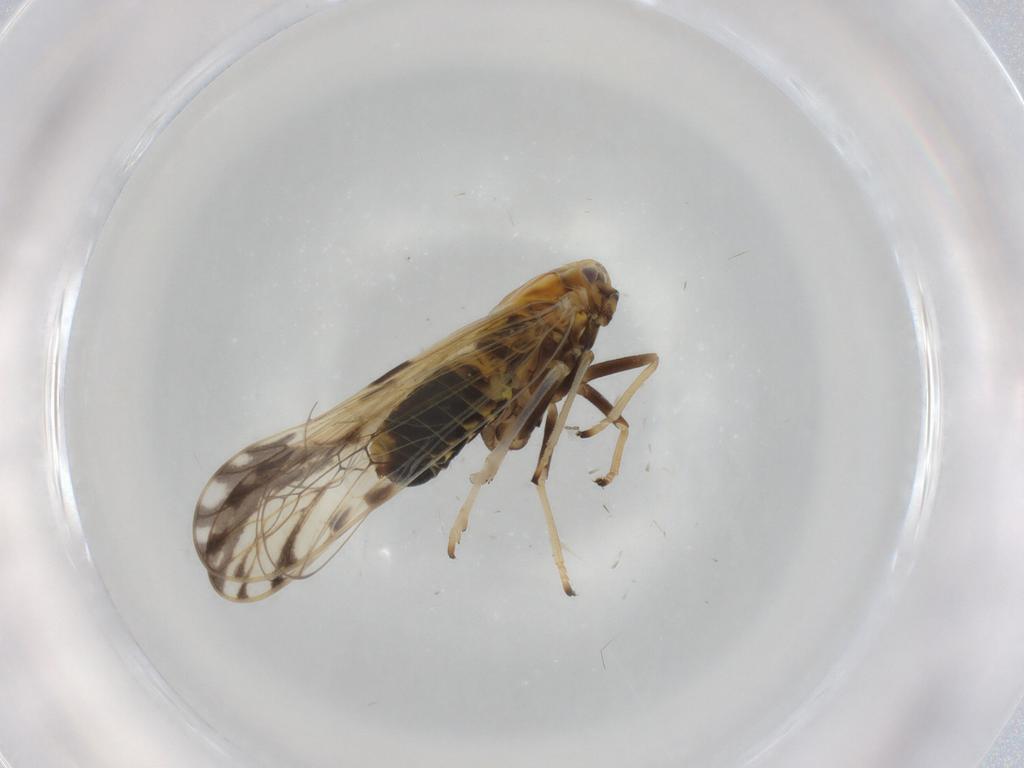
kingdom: Animalia
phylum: Arthropoda
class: Insecta
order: Hemiptera
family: Delphacidae
